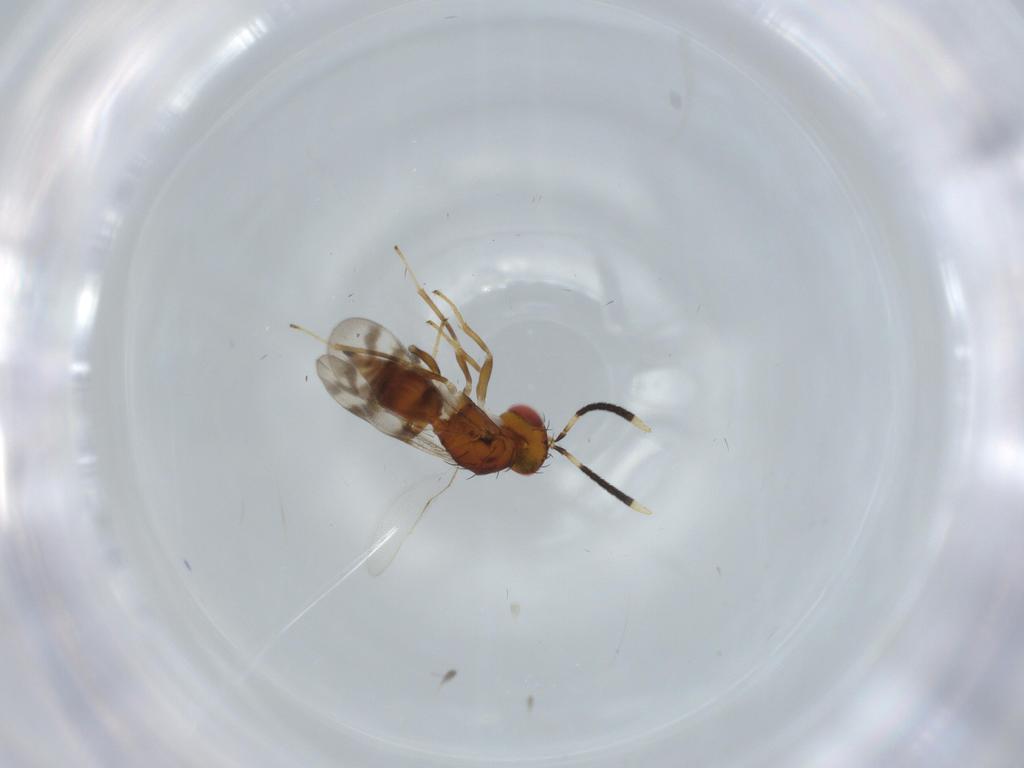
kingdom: Animalia
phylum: Arthropoda
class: Insecta
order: Hymenoptera
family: Diparidae
